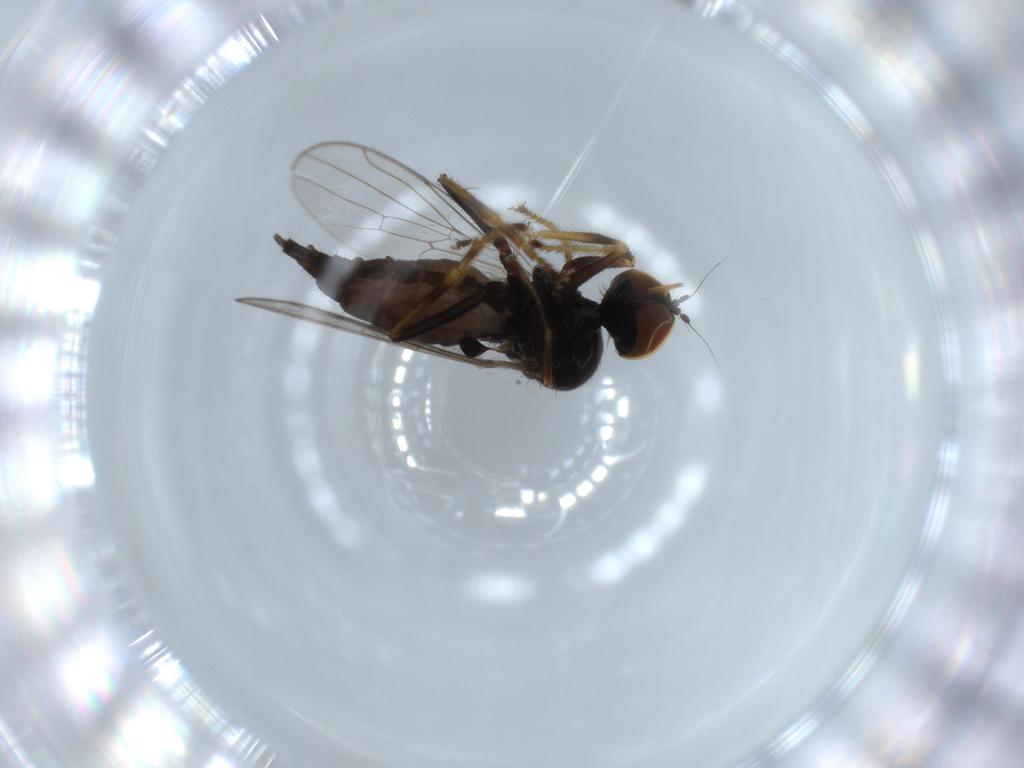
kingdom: Animalia
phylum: Arthropoda
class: Insecta
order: Diptera
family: Hybotidae
